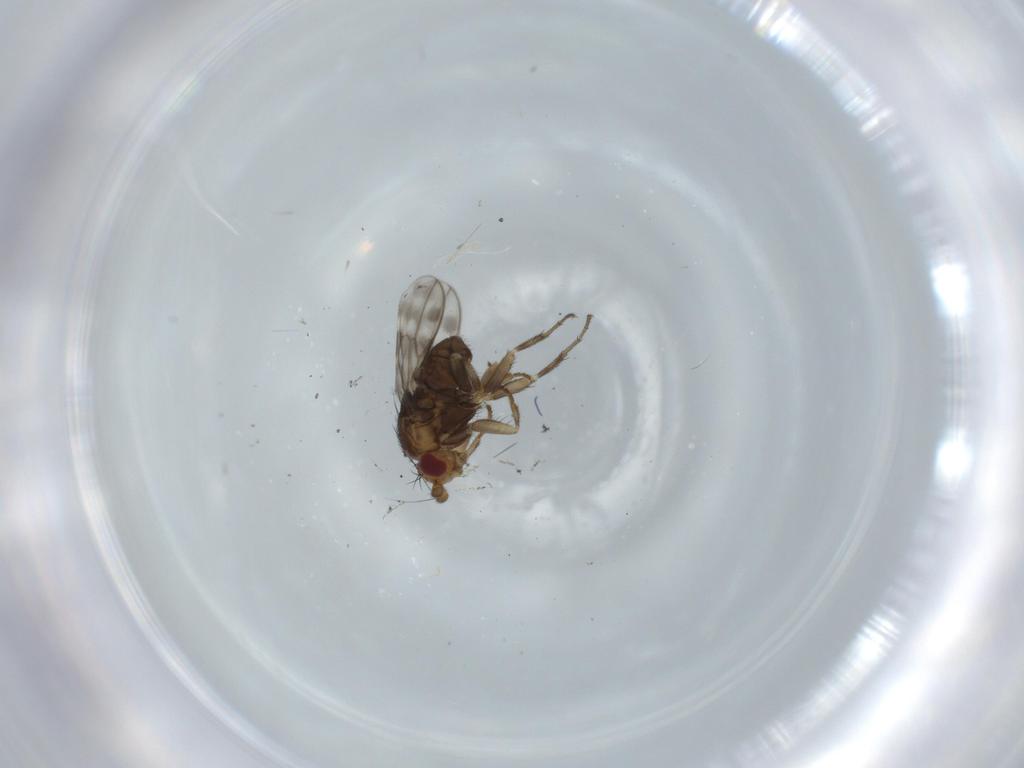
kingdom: Animalia
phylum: Arthropoda
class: Insecta
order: Diptera
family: Sphaeroceridae
